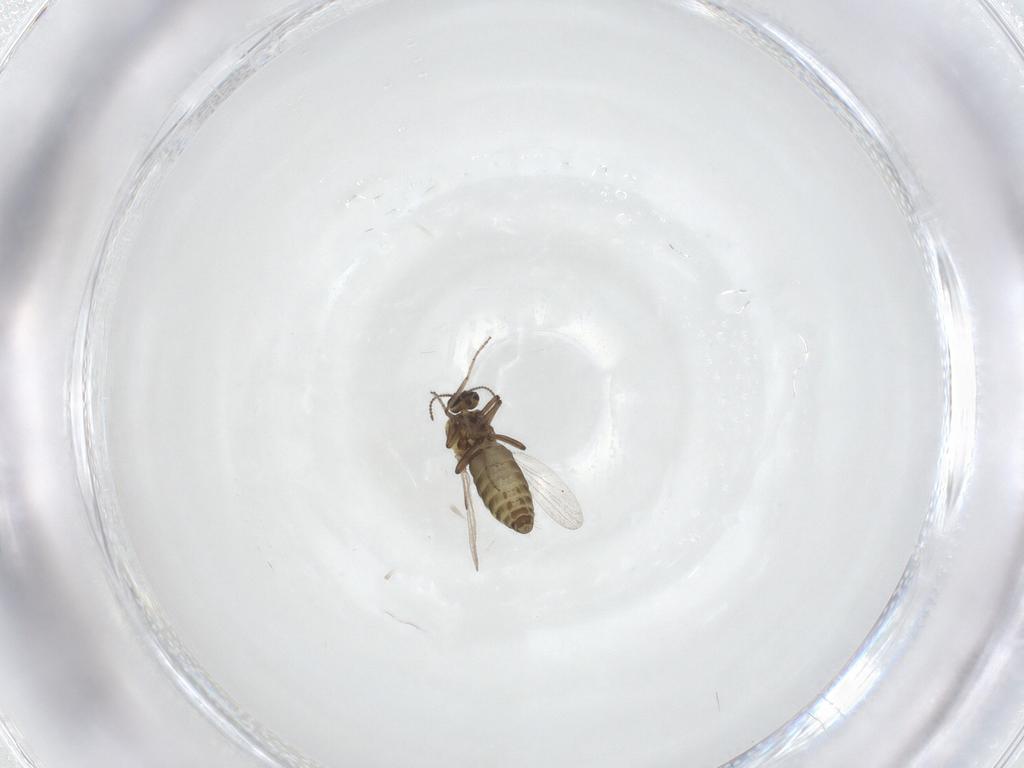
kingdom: Animalia
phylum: Arthropoda
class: Insecta
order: Diptera
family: Ceratopogonidae
